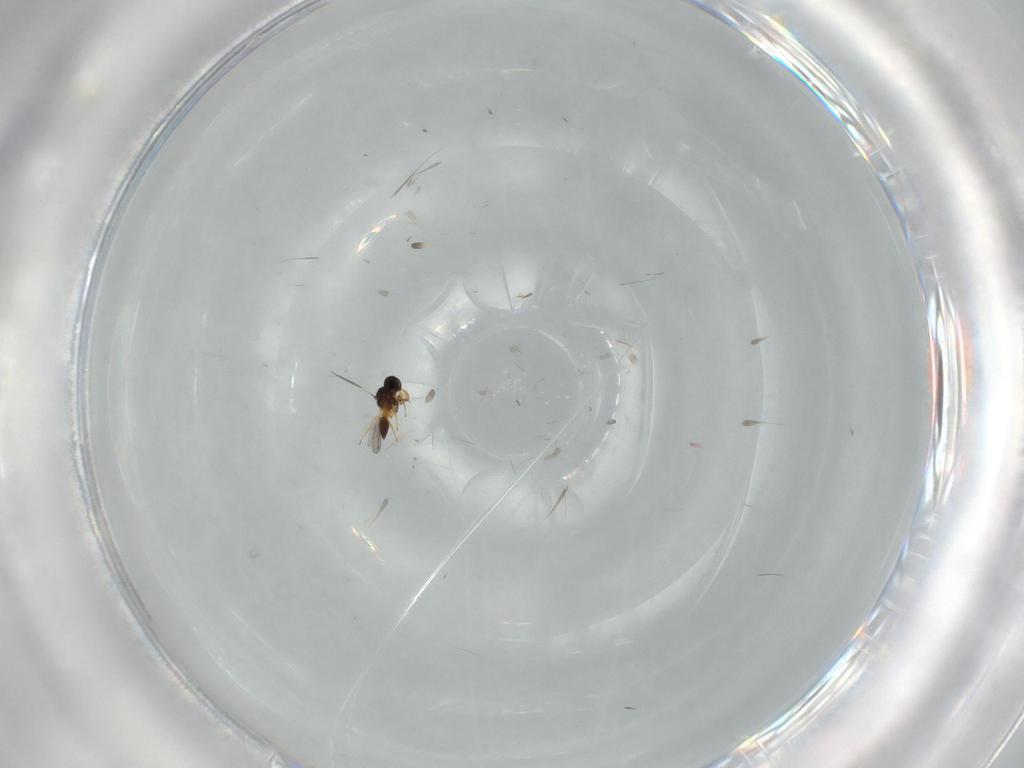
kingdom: Animalia
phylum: Arthropoda
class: Insecta
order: Hymenoptera
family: Platygastridae
